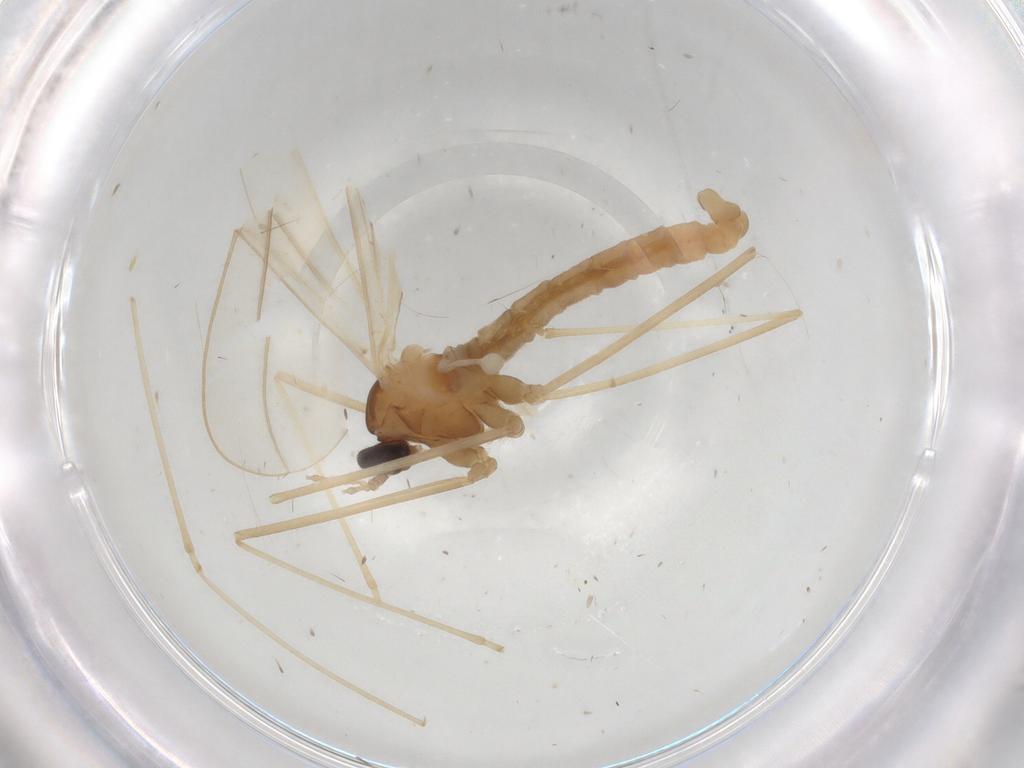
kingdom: Animalia
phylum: Arthropoda
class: Insecta
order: Diptera
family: Cecidomyiidae
